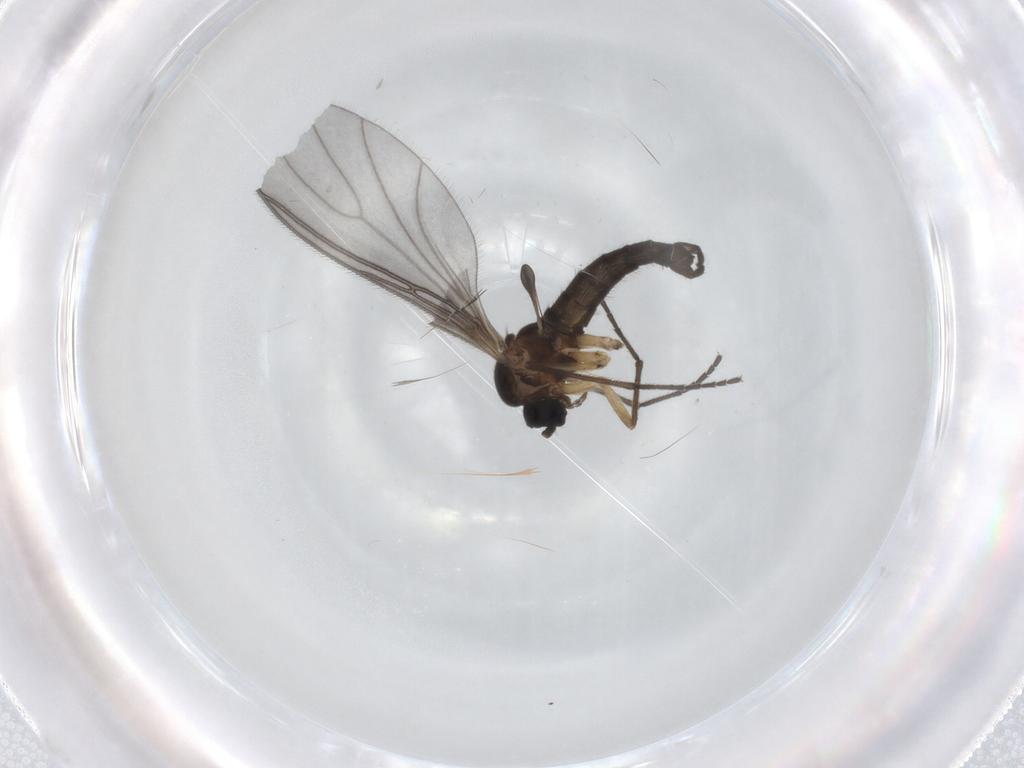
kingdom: Animalia
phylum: Arthropoda
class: Insecta
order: Diptera
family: Sciaridae
